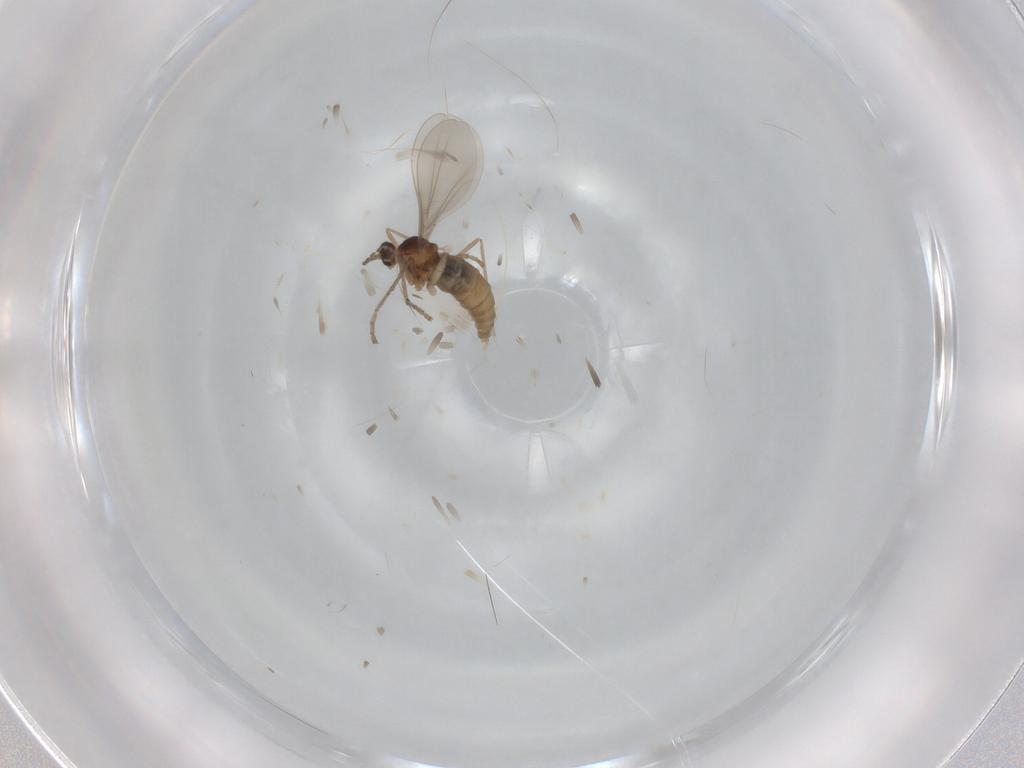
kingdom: Animalia
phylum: Arthropoda
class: Insecta
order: Diptera
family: Cecidomyiidae
